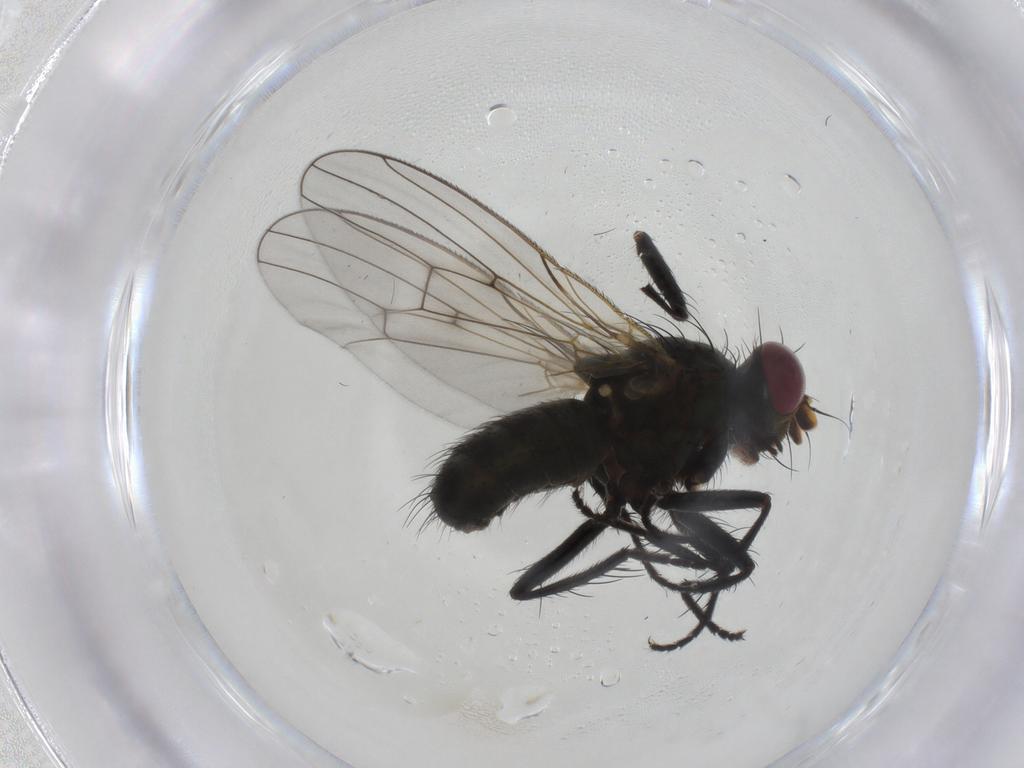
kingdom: Animalia
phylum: Arthropoda
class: Insecta
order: Diptera
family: Muscidae
